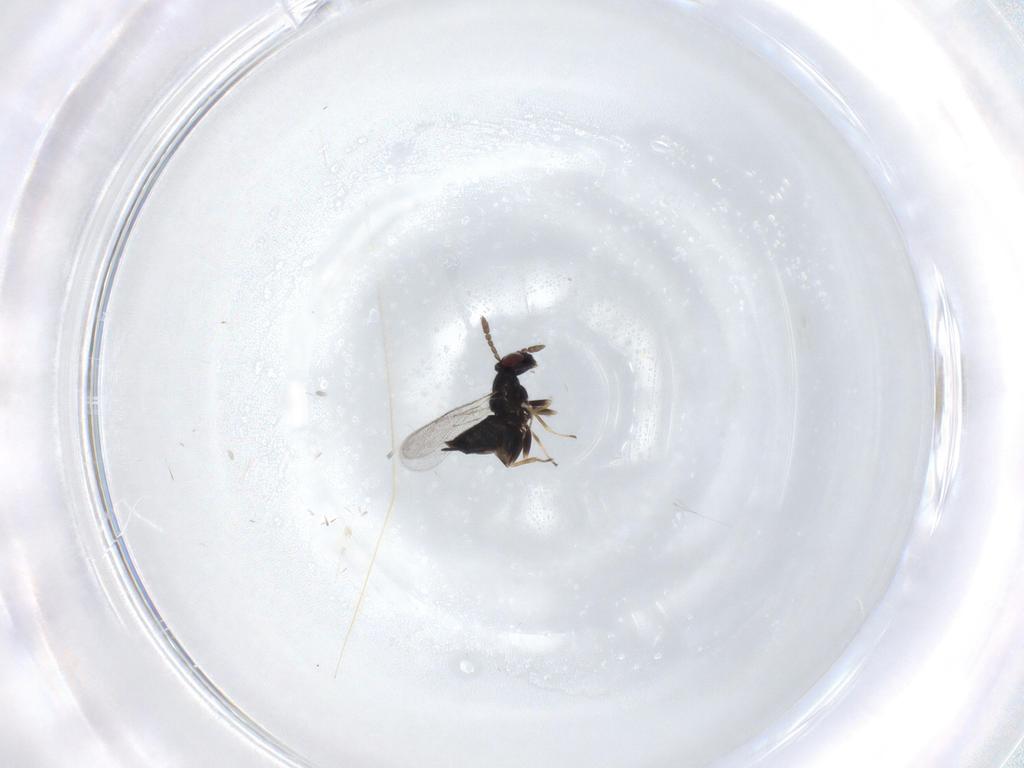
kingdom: Animalia
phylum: Arthropoda
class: Insecta
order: Hymenoptera
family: Eulophidae
